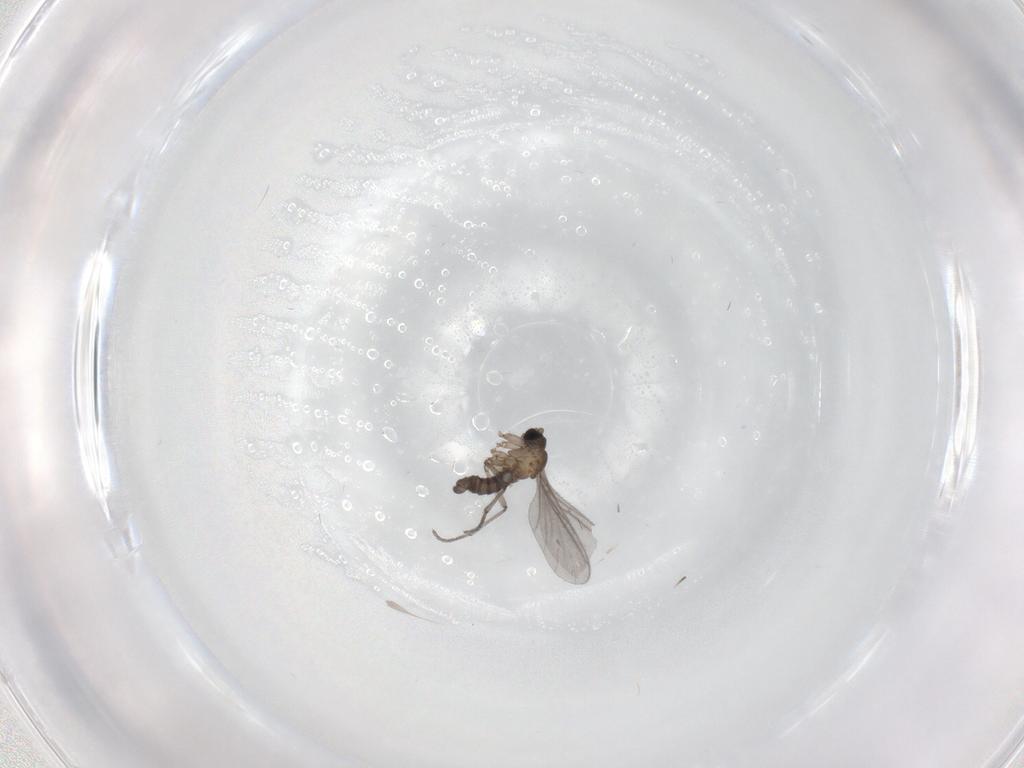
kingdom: Animalia
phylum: Arthropoda
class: Insecta
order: Diptera
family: Sciaridae
